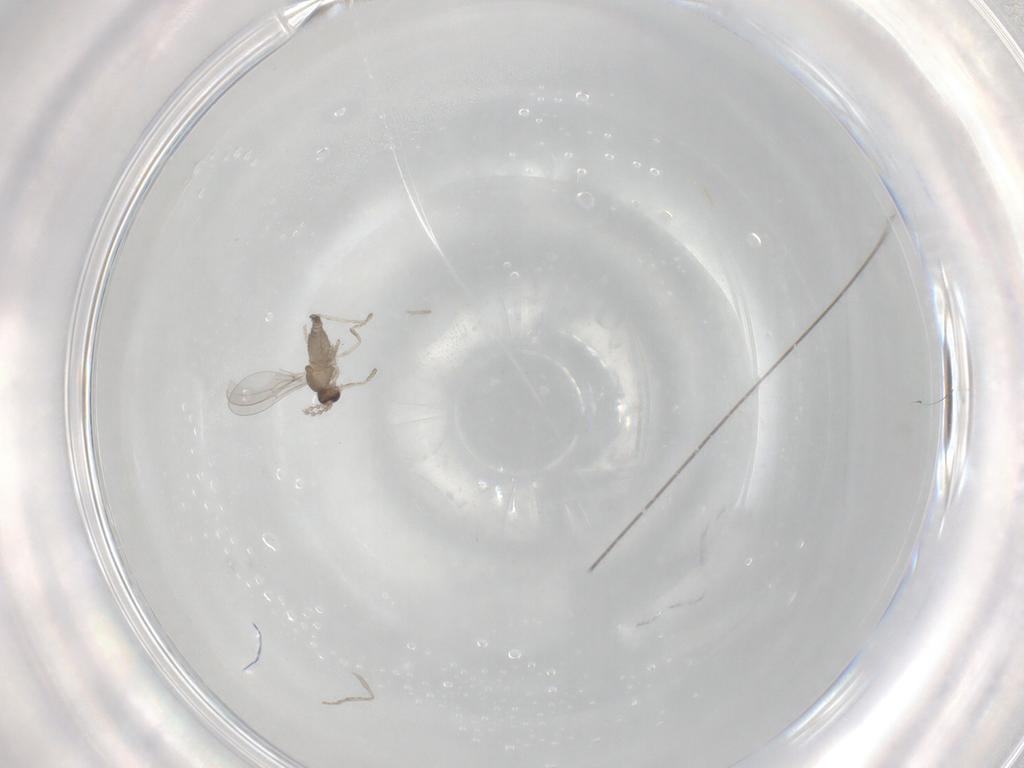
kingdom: Animalia
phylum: Arthropoda
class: Insecta
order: Diptera
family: Cecidomyiidae
